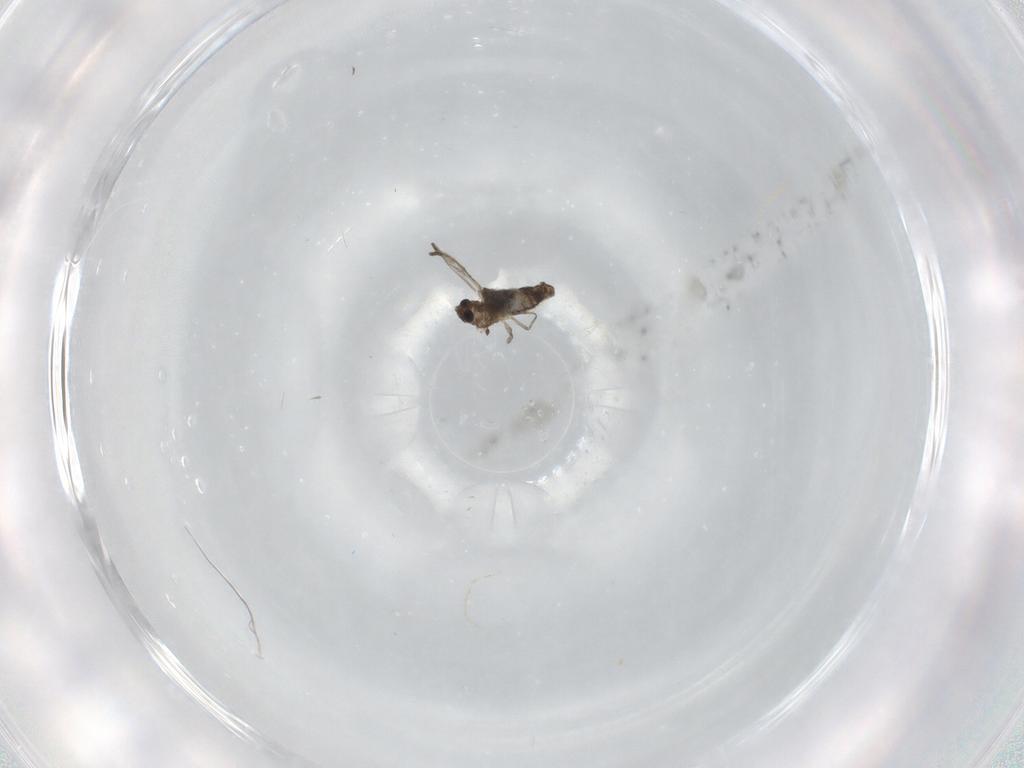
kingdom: Animalia
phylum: Arthropoda
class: Insecta
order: Diptera
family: Chironomidae
